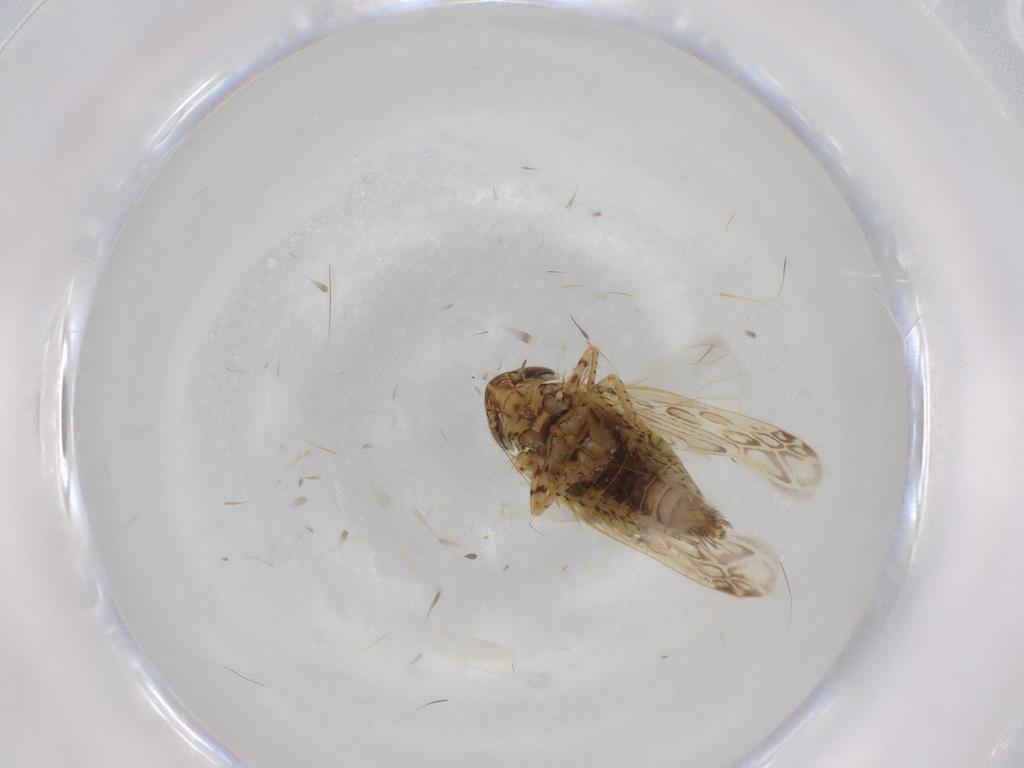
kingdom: Animalia
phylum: Arthropoda
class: Insecta
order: Hemiptera
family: Cicadellidae
